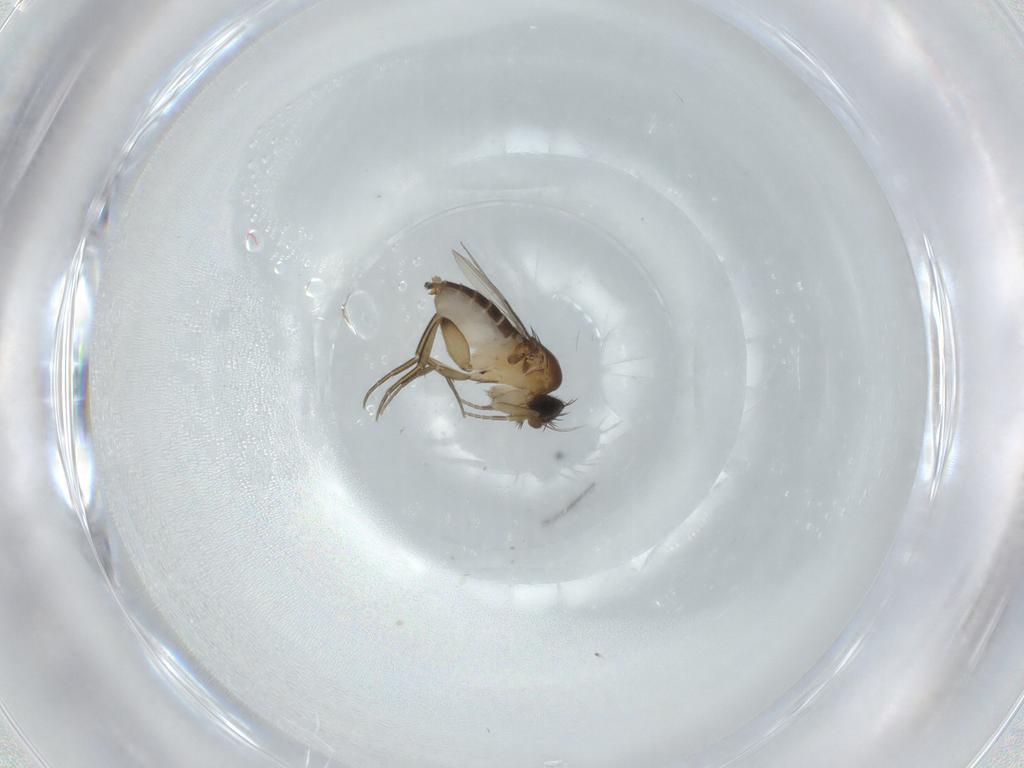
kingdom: Animalia
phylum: Arthropoda
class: Insecta
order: Diptera
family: Phoridae
